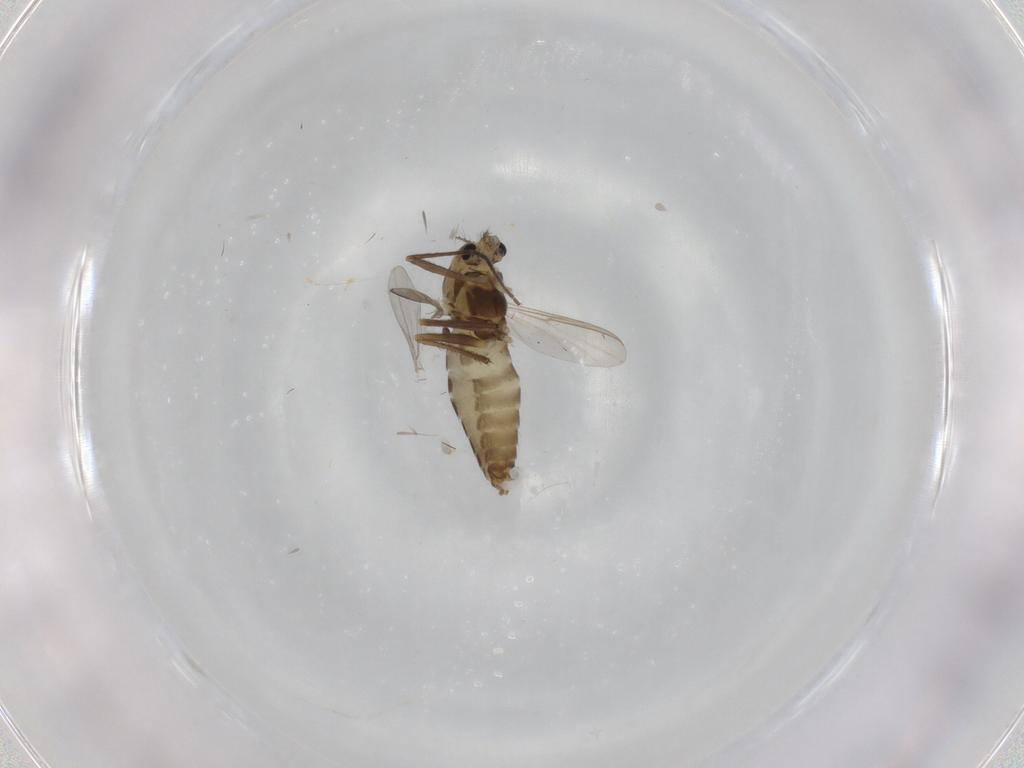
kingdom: Animalia
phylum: Arthropoda
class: Insecta
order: Diptera
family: Chironomidae
